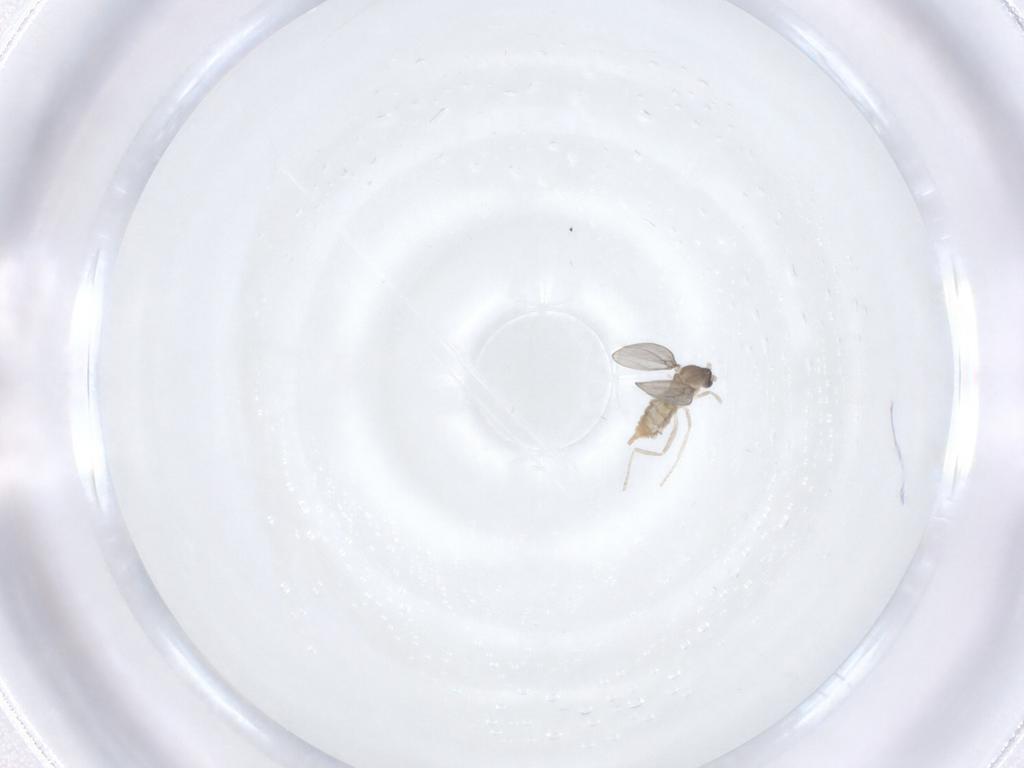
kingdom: Animalia
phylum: Arthropoda
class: Insecta
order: Diptera
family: Cecidomyiidae
